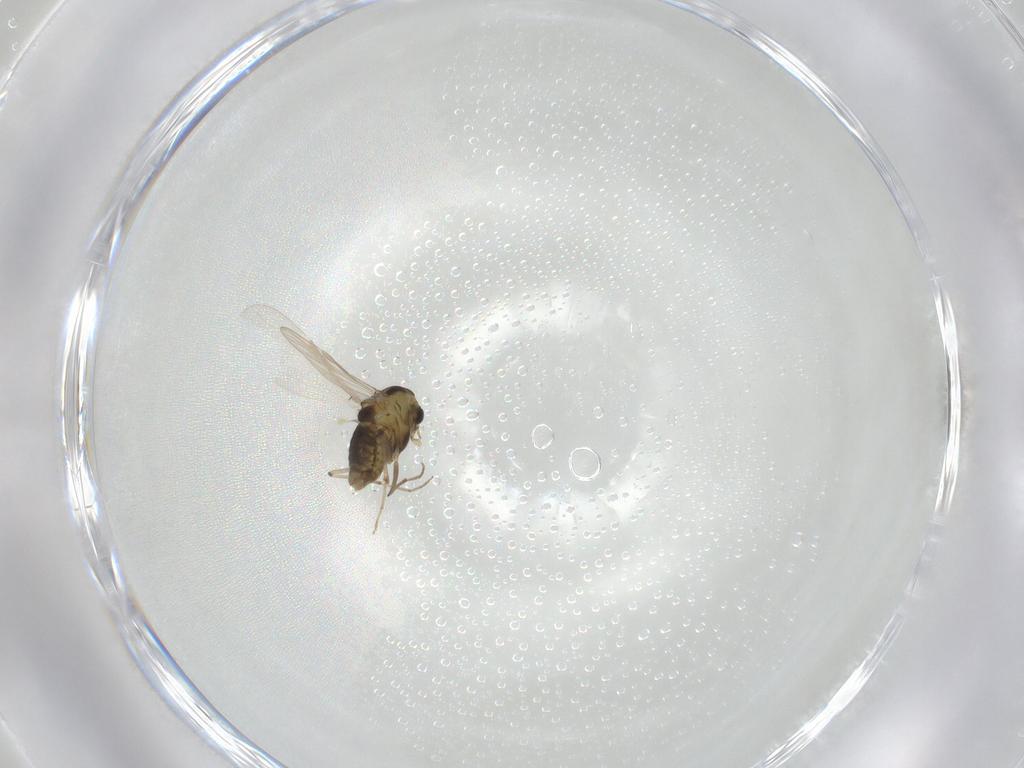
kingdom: Animalia
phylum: Arthropoda
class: Insecta
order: Diptera
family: Chironomidae
